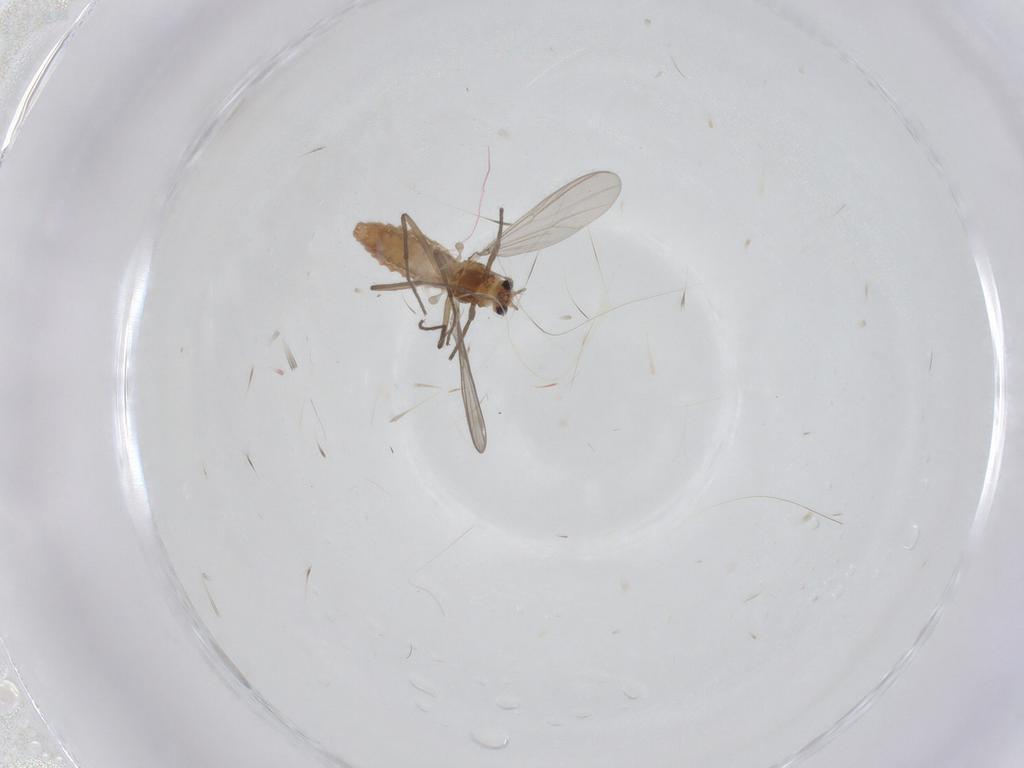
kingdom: Animalia
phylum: Arthropoda
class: Insecta
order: Diptera
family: Chironomidae
